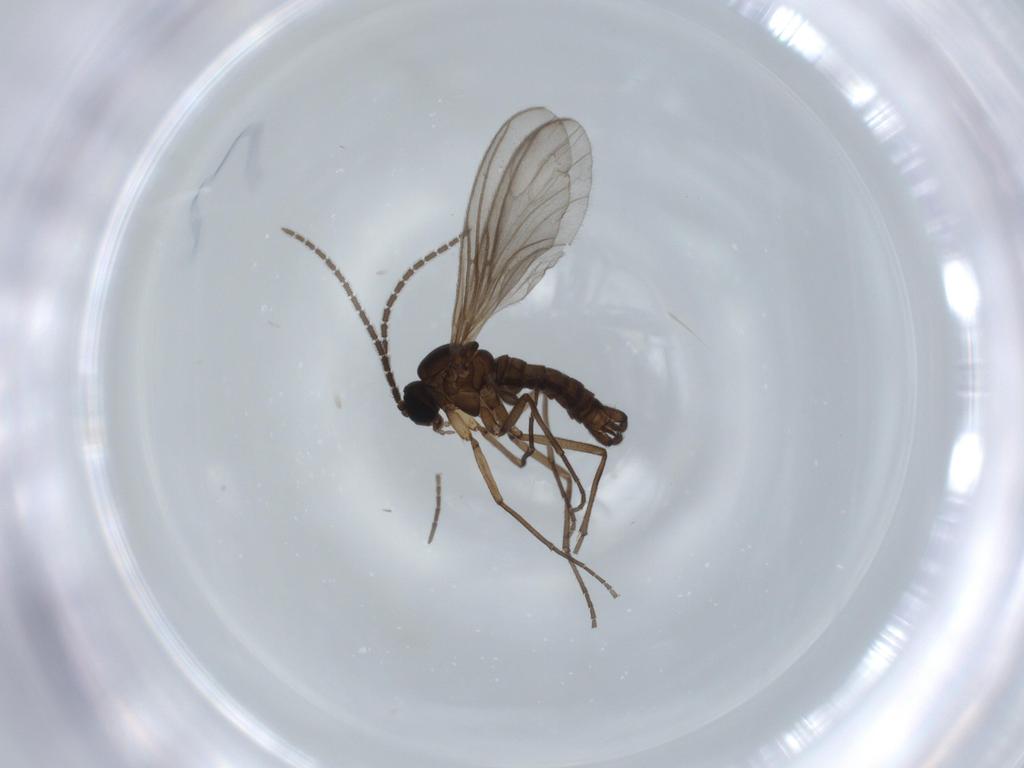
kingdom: Animalia
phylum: Arthropoda
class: Insecta
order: Diptera
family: Sciaridae
